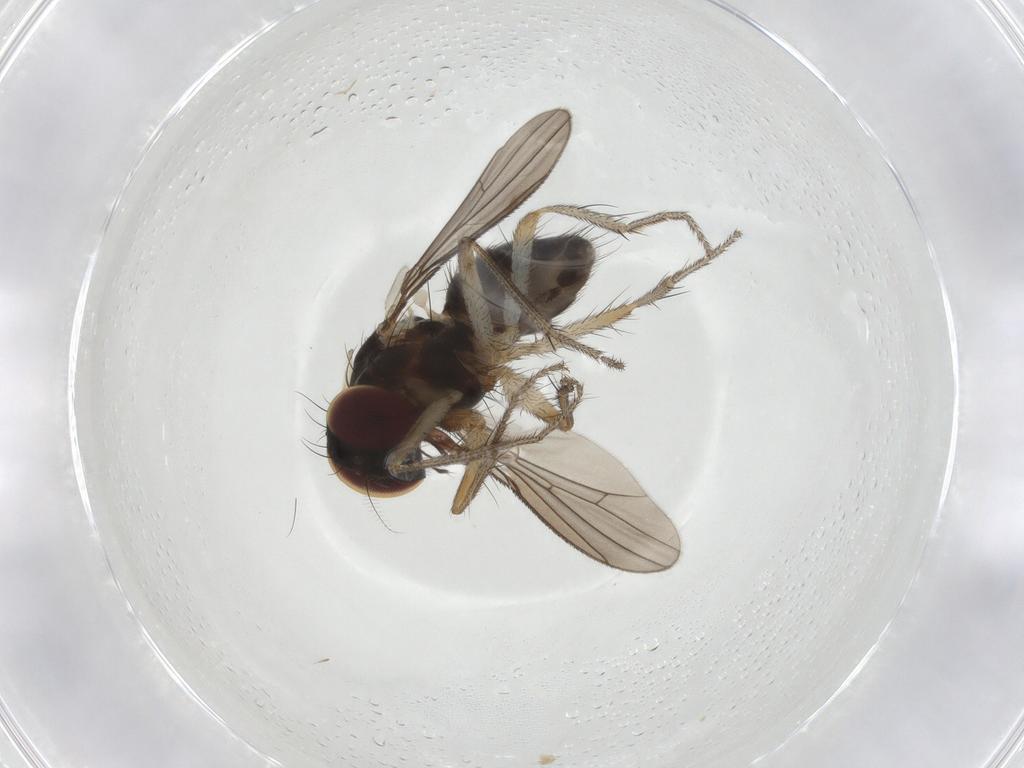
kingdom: Animalia
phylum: Arthropoda
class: Insecta
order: Diptera
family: Anthomyiidae
